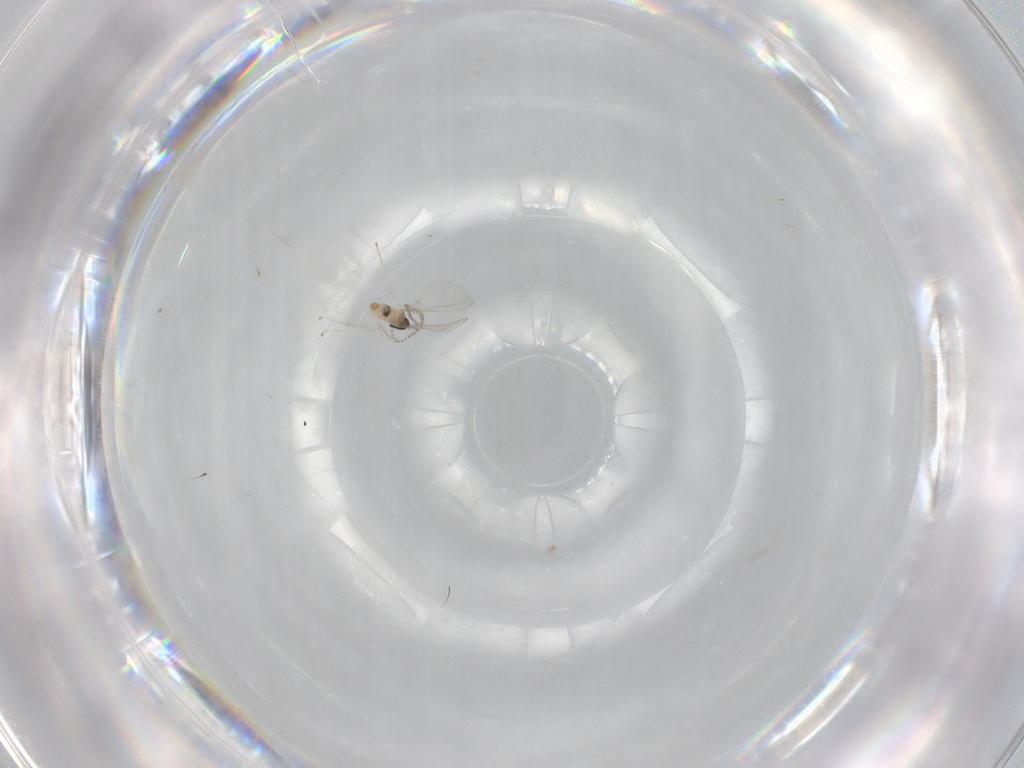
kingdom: Animalia
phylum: Arthropoda
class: Insecta
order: Diptera
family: Cecidomyiidae
